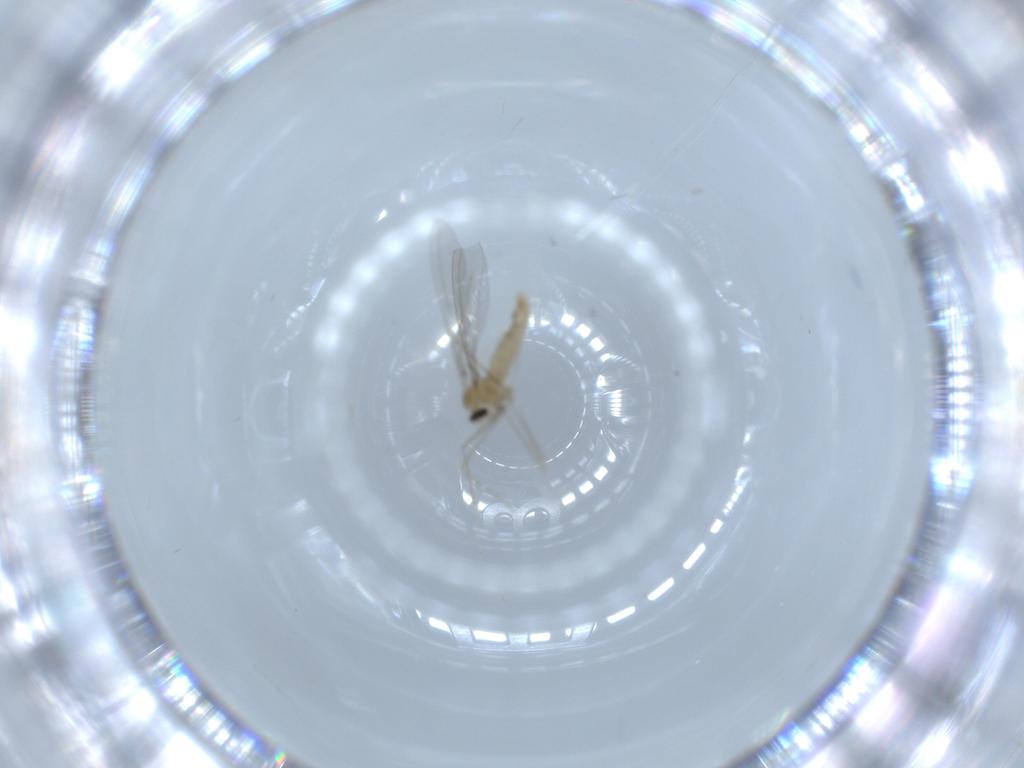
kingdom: Animalia
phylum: Arthropoda
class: Insecta
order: Diptera
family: Cecidomyiidae
